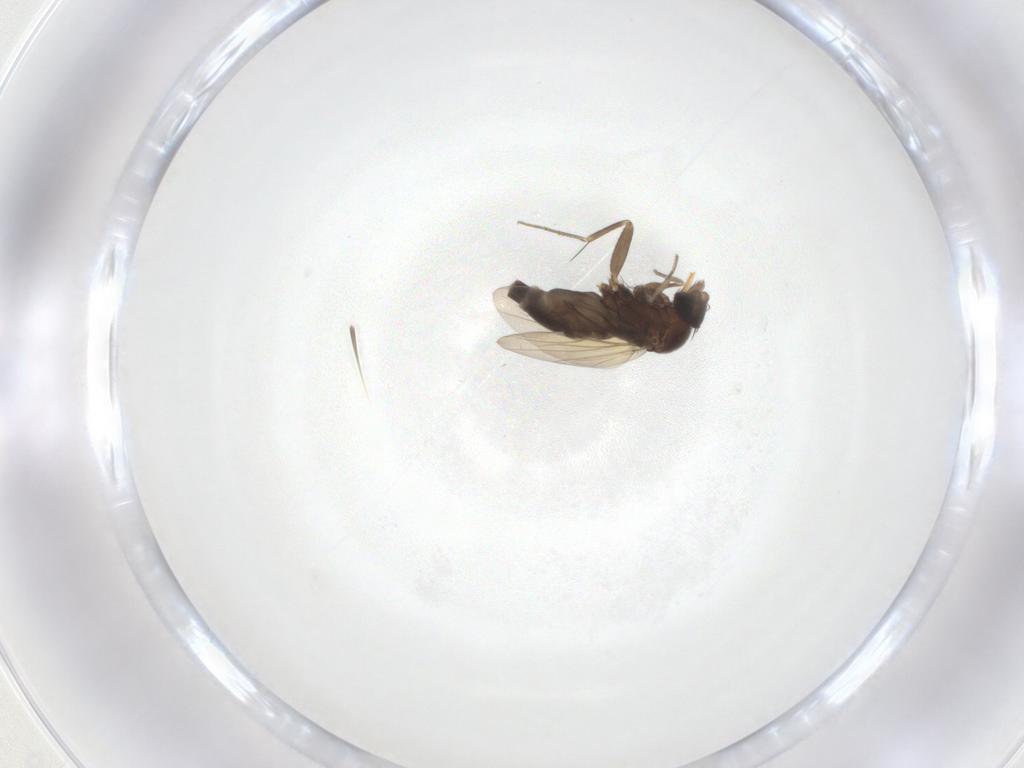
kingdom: Animalia
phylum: Arthropoda
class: Insecta
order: Diptera
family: Phoridae
